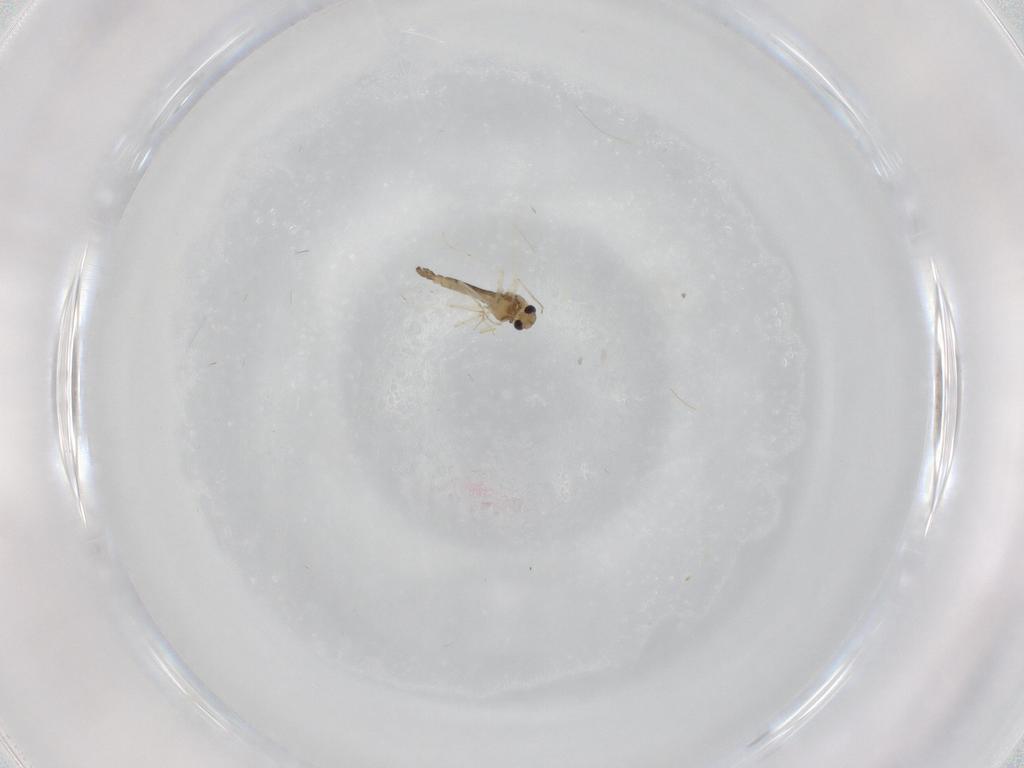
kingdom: Animalia
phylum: Arthropoda
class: Insecta
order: Diptera
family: Chironomidae
